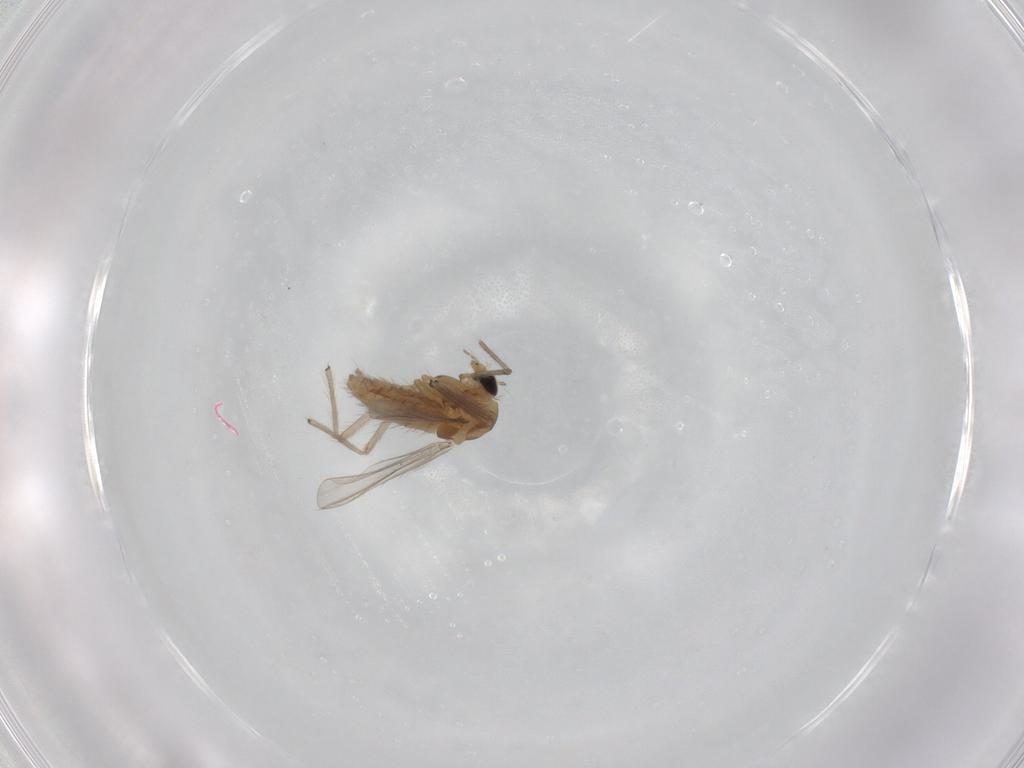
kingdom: Animalia
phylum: Arthropoda
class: Insecta
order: Diptera
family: Chironomidae
